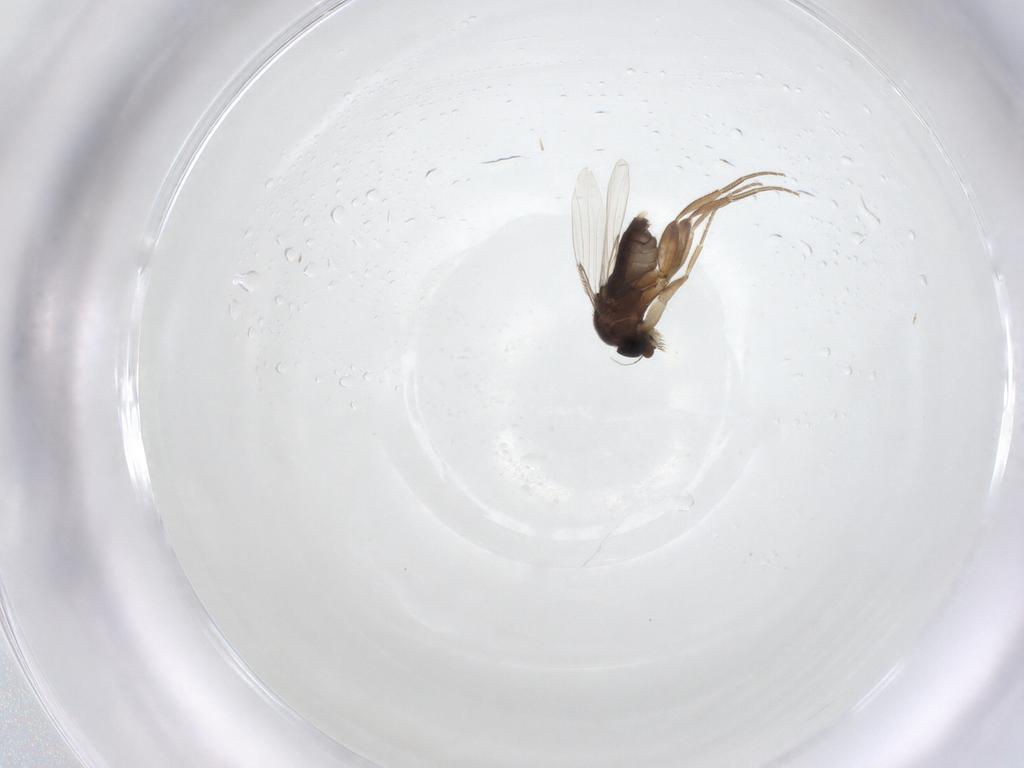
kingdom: Animalia
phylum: Arthropoda
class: Insecta
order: Diptera
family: Phoridae
